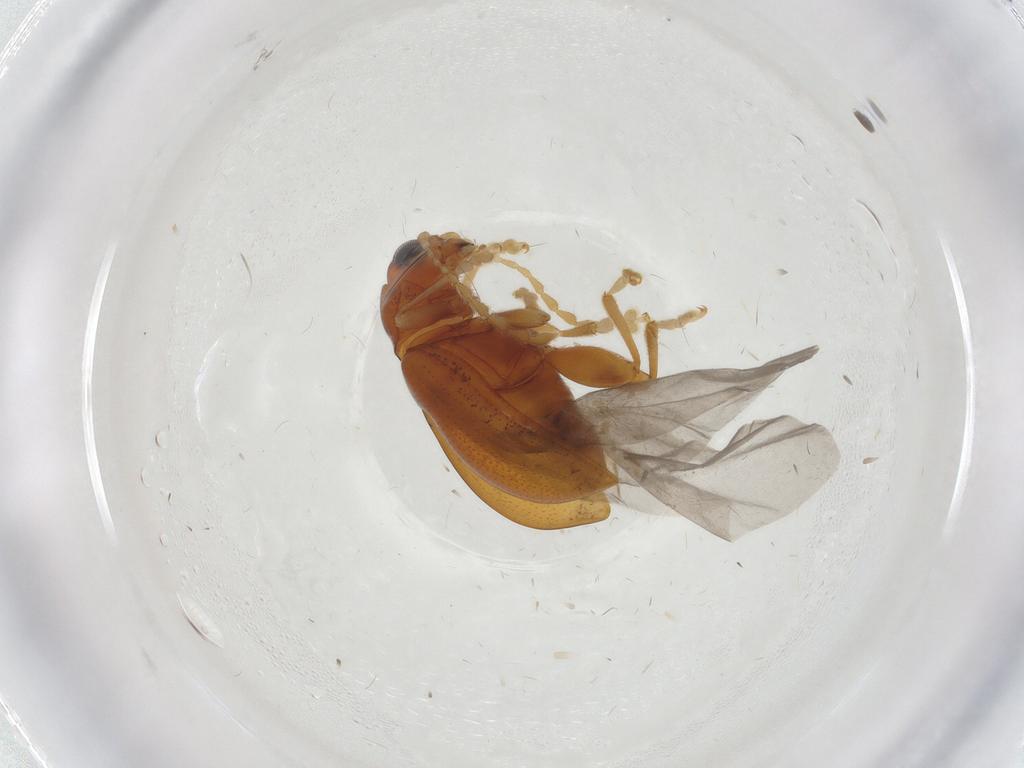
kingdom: Animalia
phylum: Arthropoda
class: Insecta
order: Coleoptera
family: Chrysomelidae
